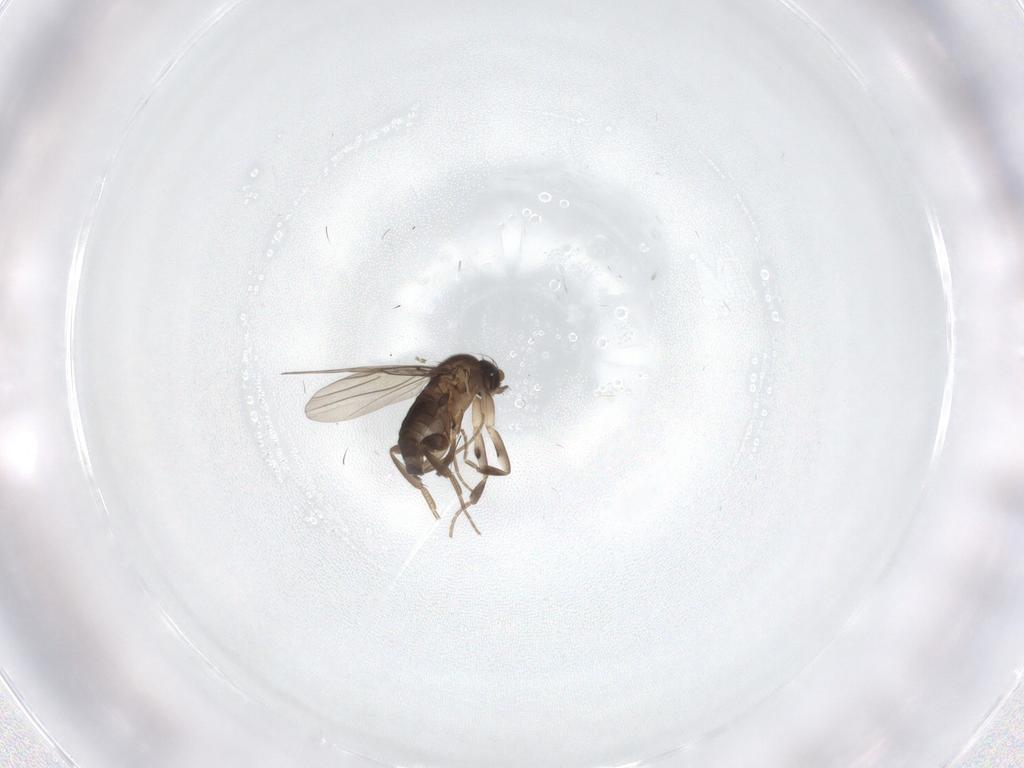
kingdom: Animalia
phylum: Arthropoda
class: Insecta
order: Diptera
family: Phoridae
